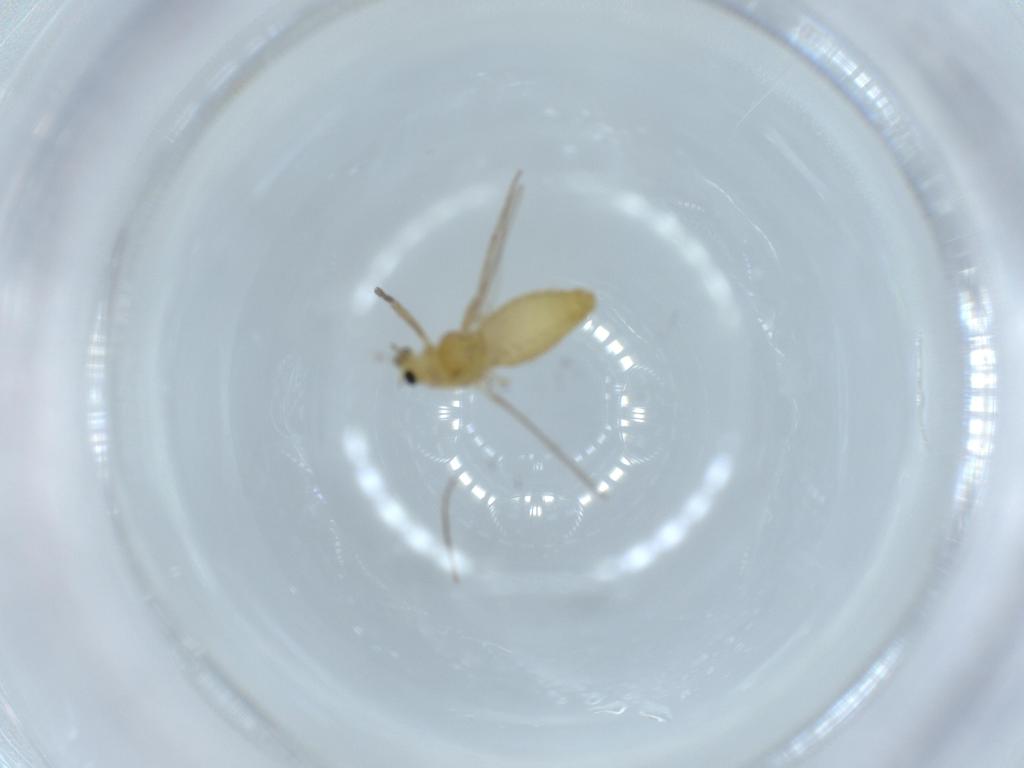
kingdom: Animalia
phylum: Arthropoda
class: Insecta
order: Diptera
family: Chironomidae
